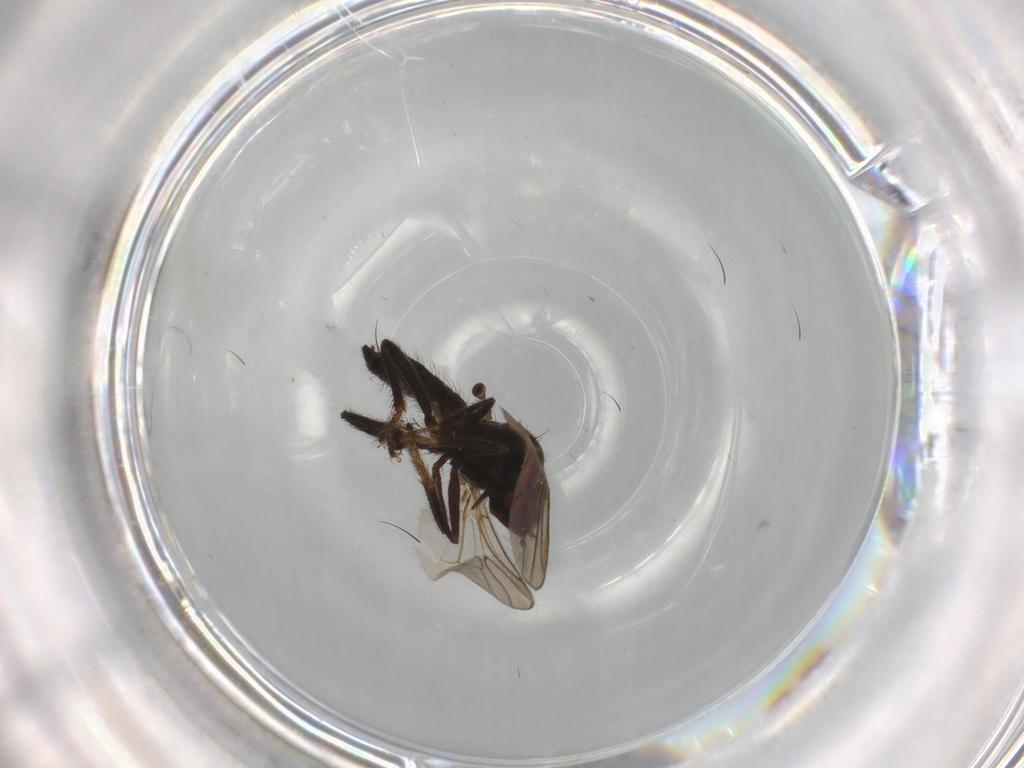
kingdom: Animalia
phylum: Arthropoda
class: Insecta
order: Diptera
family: Hybotidae
